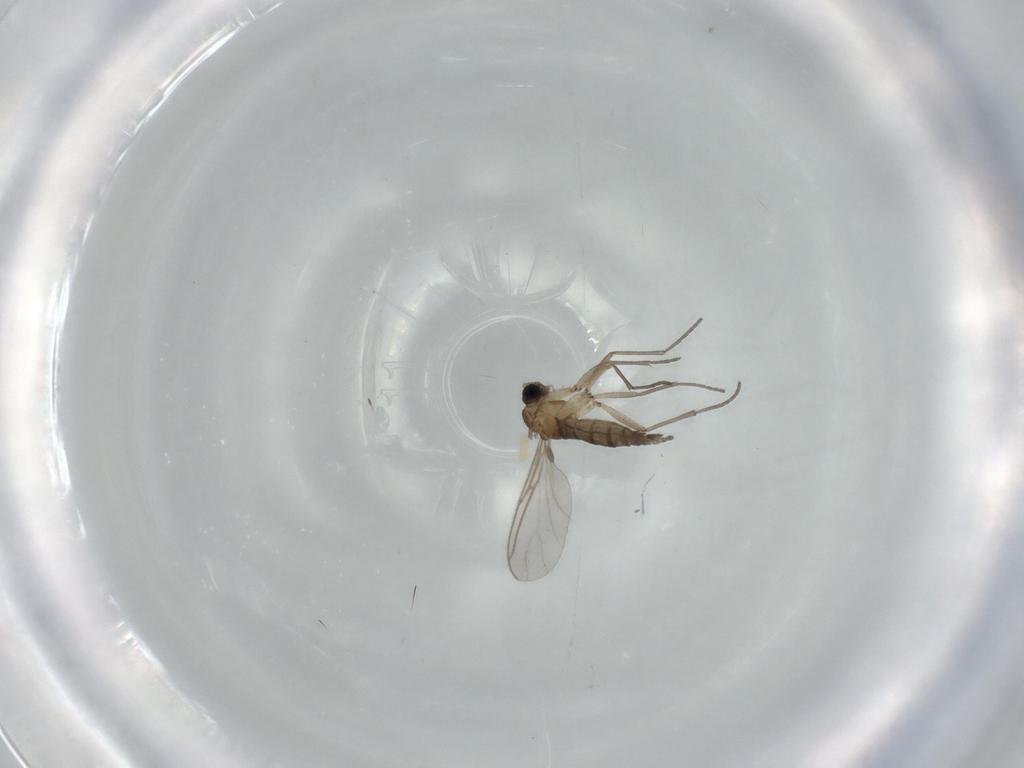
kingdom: Animalia
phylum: Arthropoda
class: Insecta
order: Diptera
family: Sciaridae
